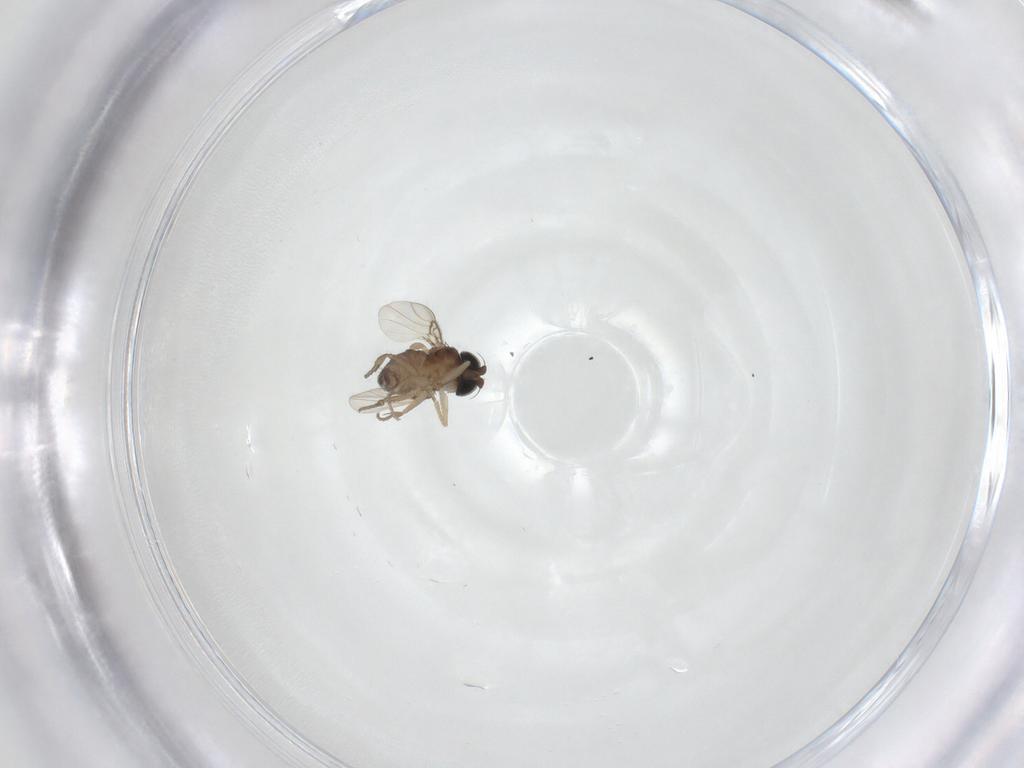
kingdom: Animalia
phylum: Arthropoda
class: Insecta
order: Diptera
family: Phoridae
